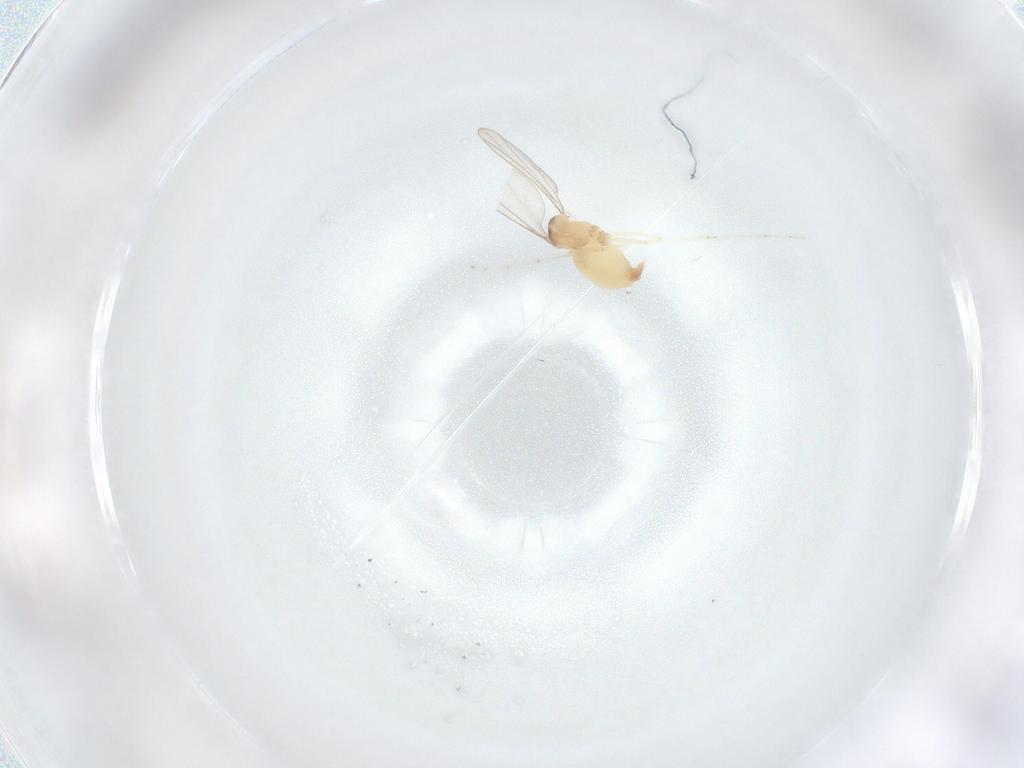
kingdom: Animalia
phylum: Arthropoda
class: Insecta
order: Diptera
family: Cecidomyiidae
